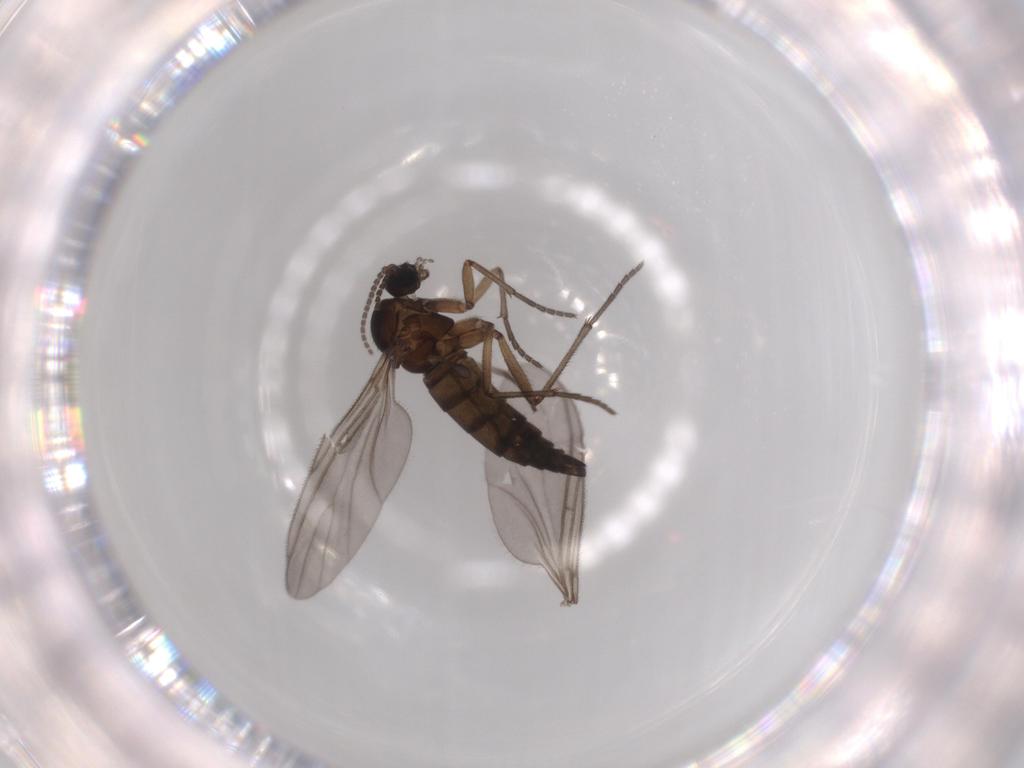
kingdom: Animalia
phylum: Arthropoda
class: Insecta
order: Diptera
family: Sciaridae
